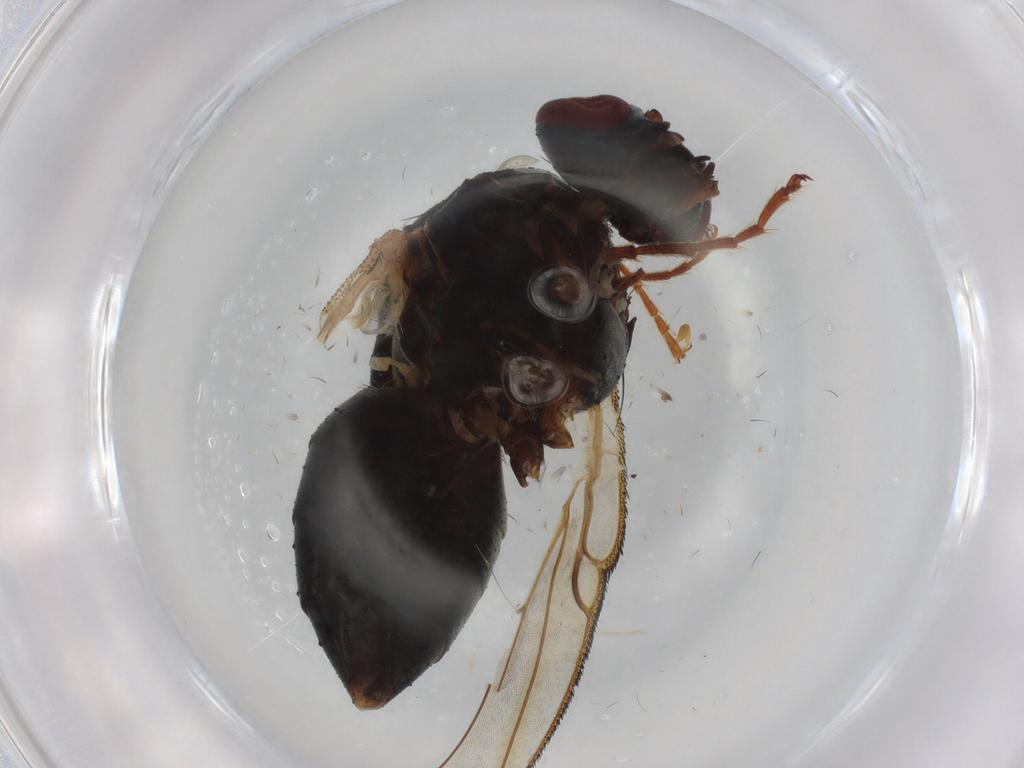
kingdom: Animalia
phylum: Arthropoda
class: Insecta
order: Diptera
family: Muscidae
